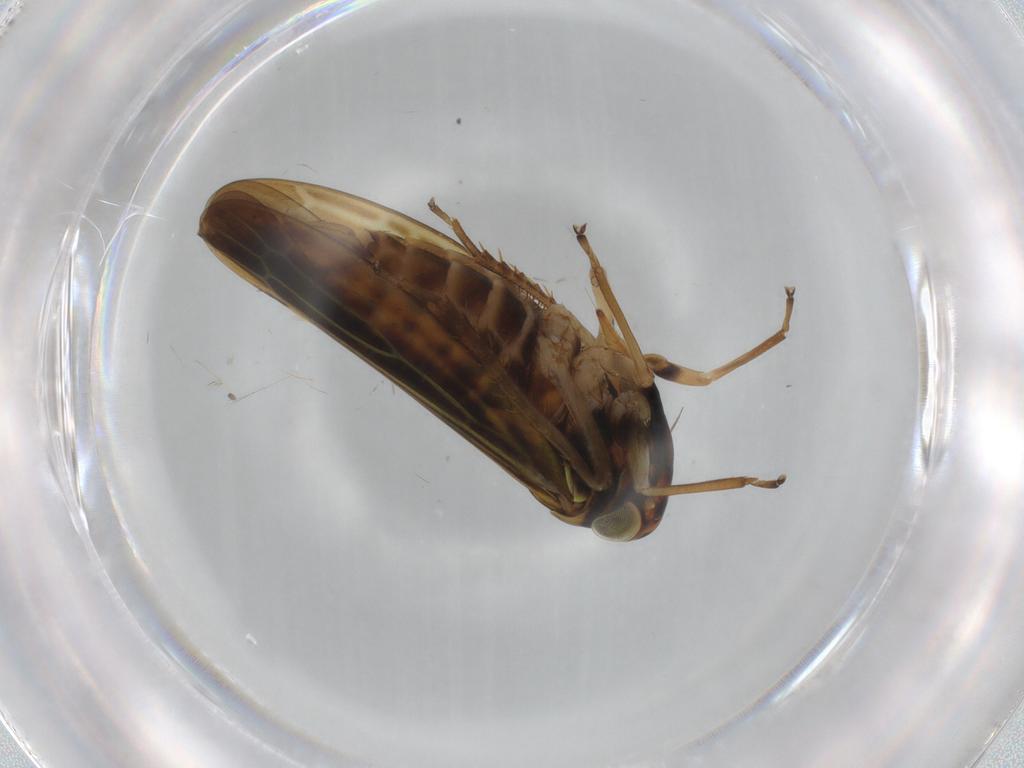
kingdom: Animalia
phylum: Arthropoda
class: Insecta
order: Hemiptera
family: Cicadellidae
